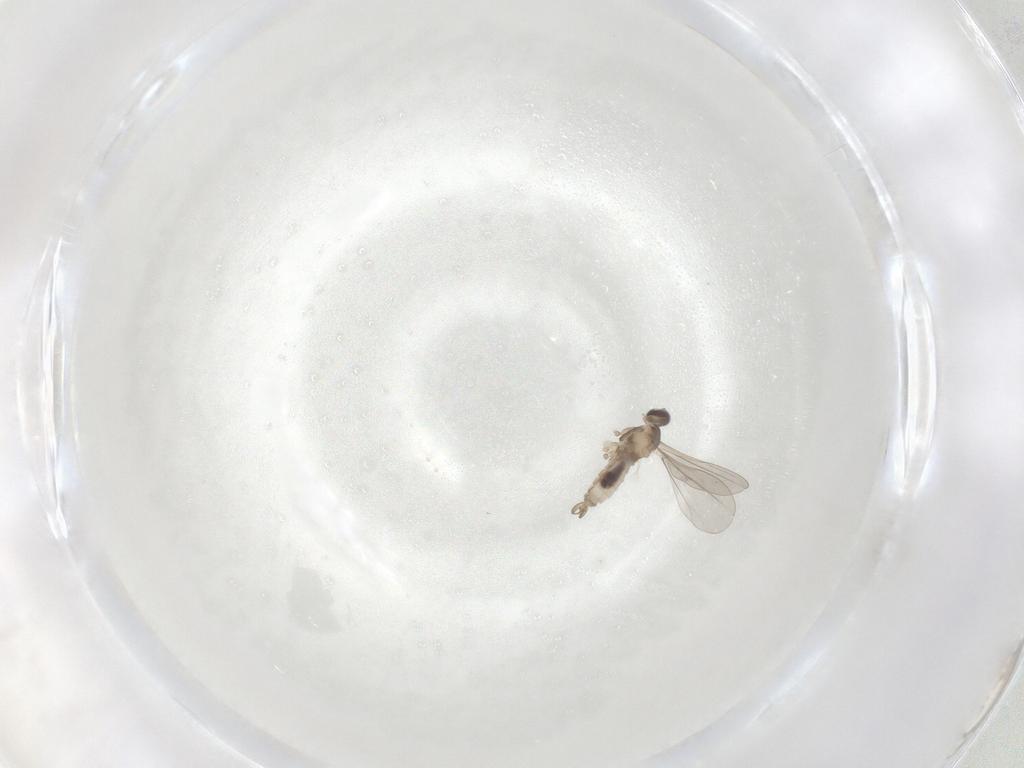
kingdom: Animalia
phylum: Arthropoda
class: Insecta
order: Diptera
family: Cecidomyiidae
